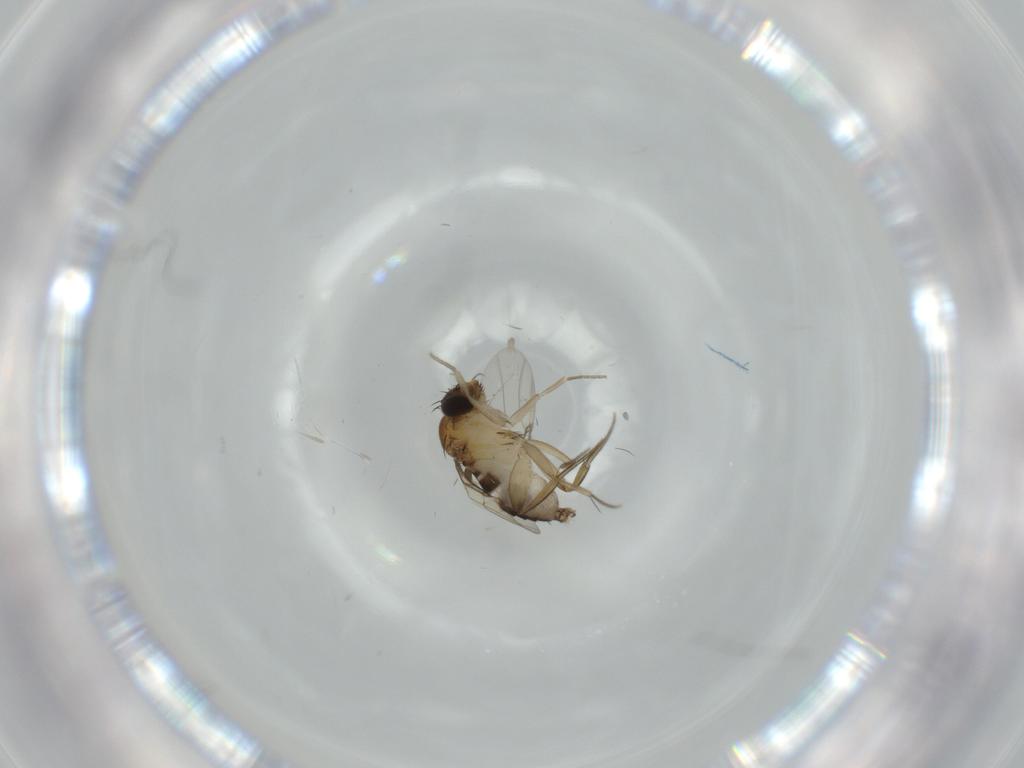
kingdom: Animalia
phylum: Arthropoda
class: Insecta
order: Diptera
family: Phoridae
